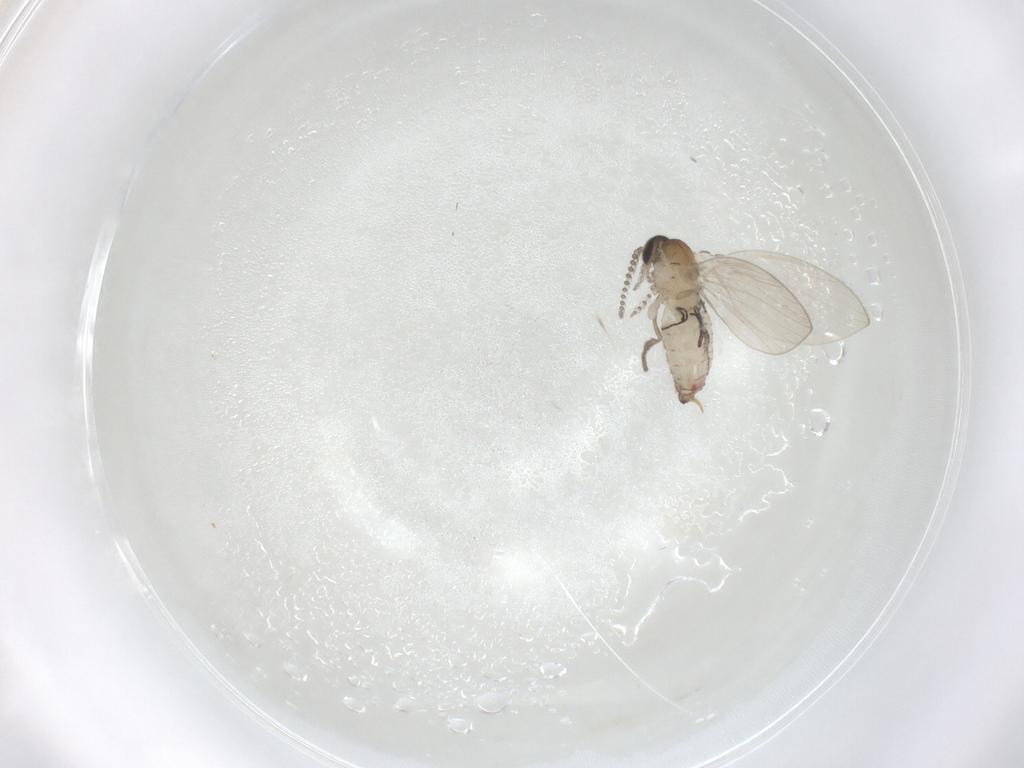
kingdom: Animalia
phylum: Arthropoda
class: Insecta
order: Diptera
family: Psychodidae
